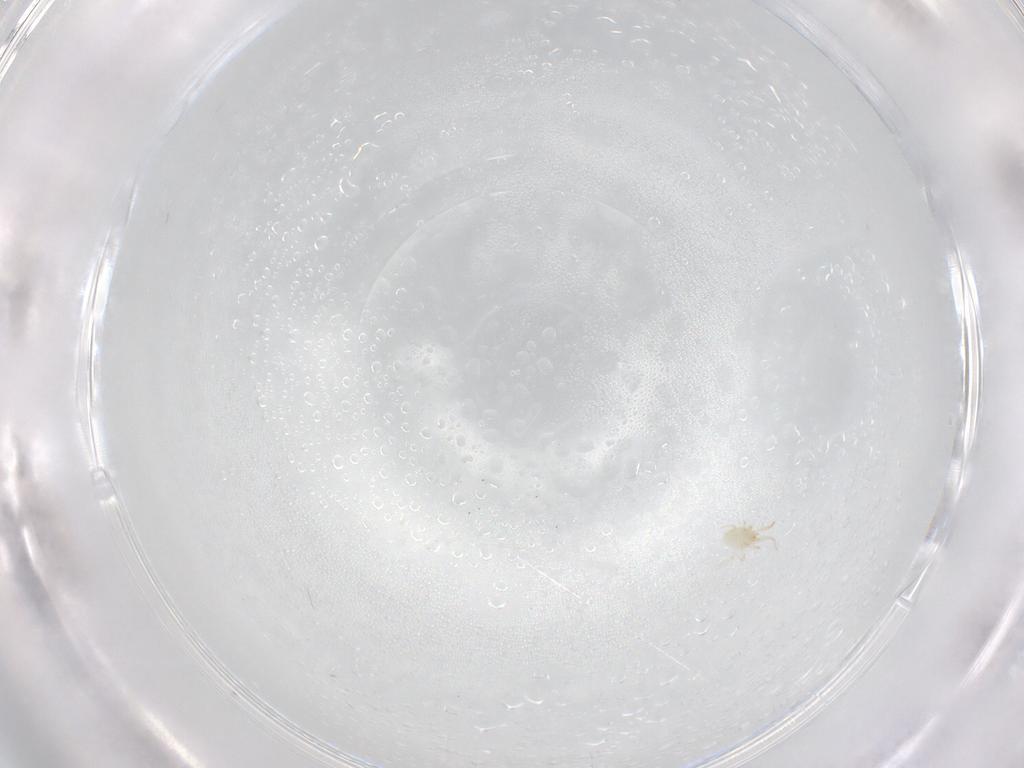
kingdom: Animalia
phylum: Arthropoda
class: Arachnida
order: Mesostigmata
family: Phytoseiidae
